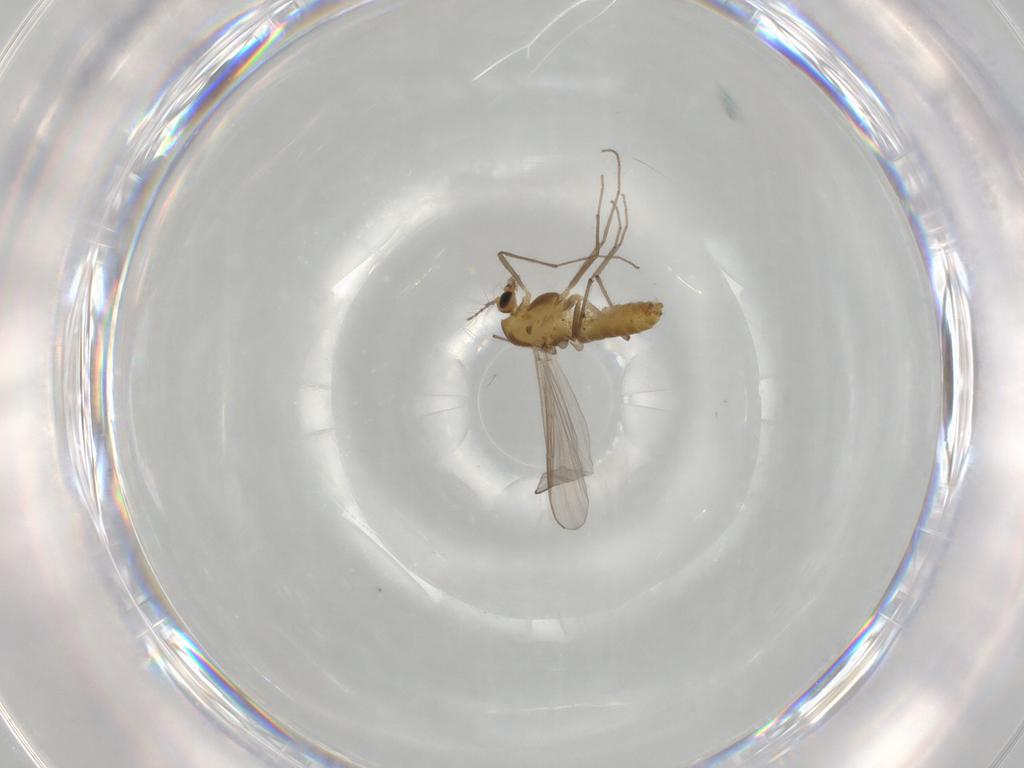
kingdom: Animalia
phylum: Arthropoda
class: Insecta
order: Diptera
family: Chironomidae
